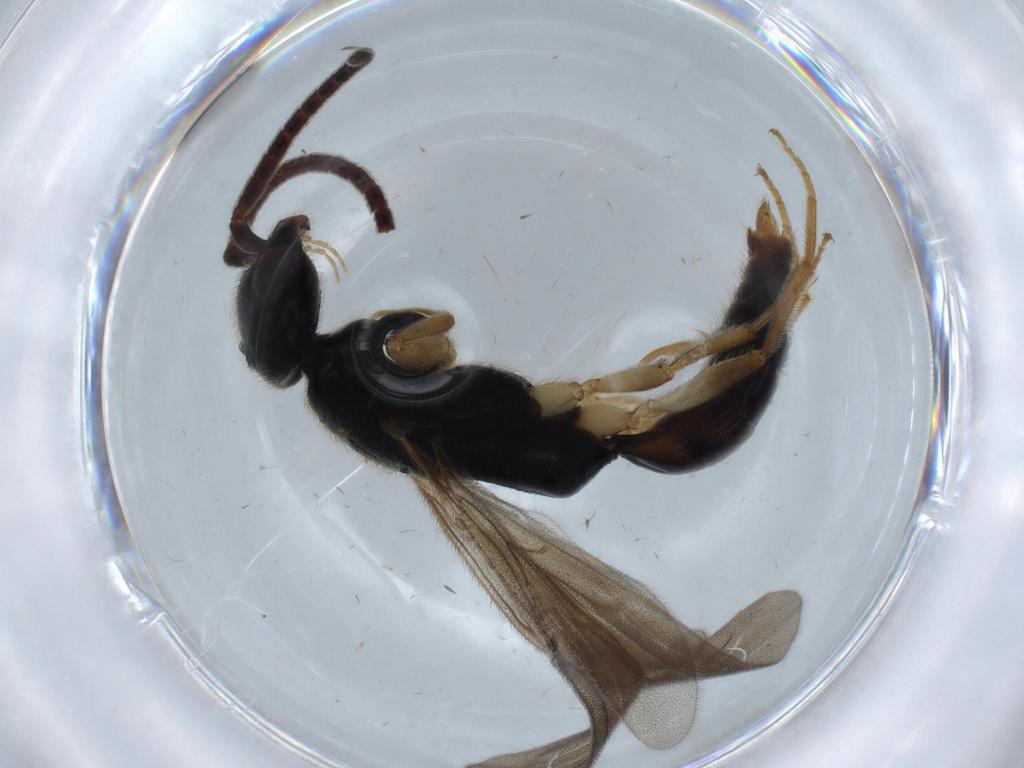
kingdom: Animalia
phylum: Arthropoda
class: Insecta
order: Hymenoptera
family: Bethylidae
